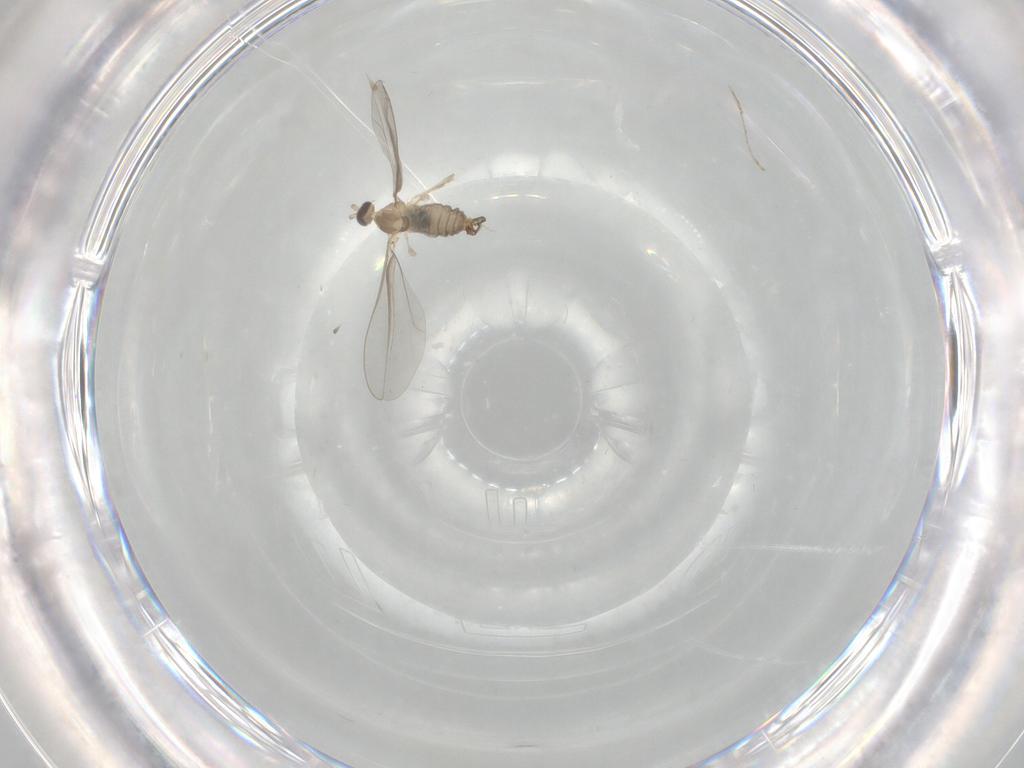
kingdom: Animalia
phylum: Arthropoda
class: Insecta
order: Diptera
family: Cecidomyiidae
